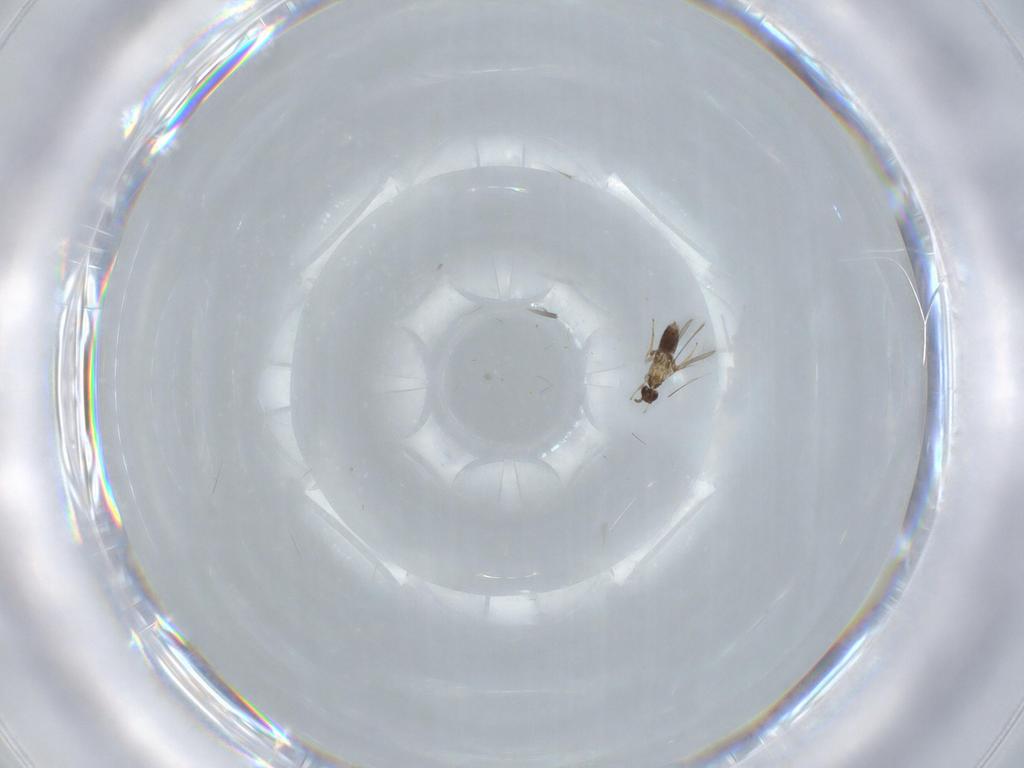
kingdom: Animalia
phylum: Arthropoda
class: Insecta
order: Hymenoptera
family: Mymaridae
